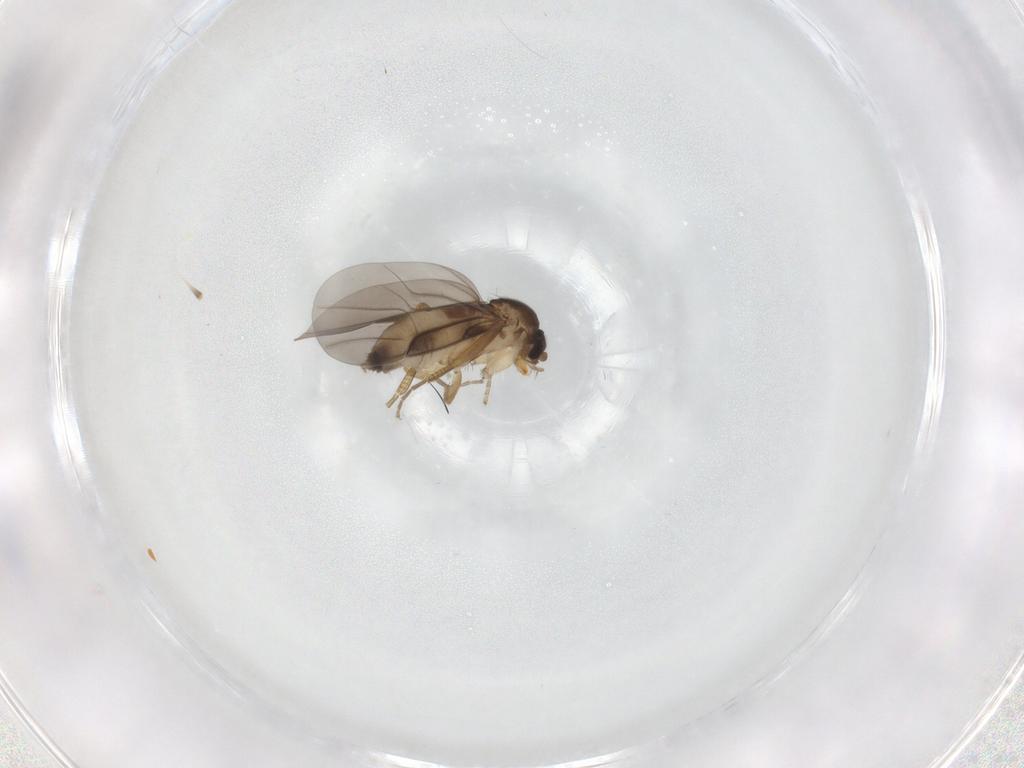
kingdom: Animalia
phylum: Arthropoda
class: Insecta
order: Diptera
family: Phoridae
